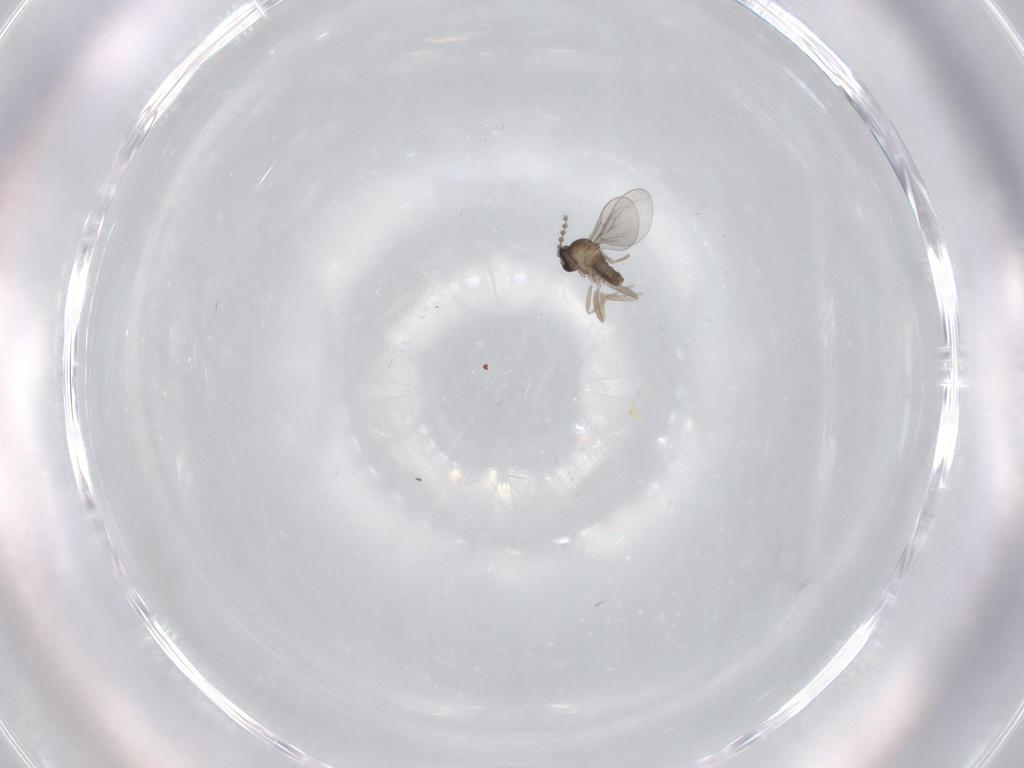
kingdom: Animalia
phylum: Arthropoda
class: Insecta
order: Diptera
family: Cecidomyiidae
